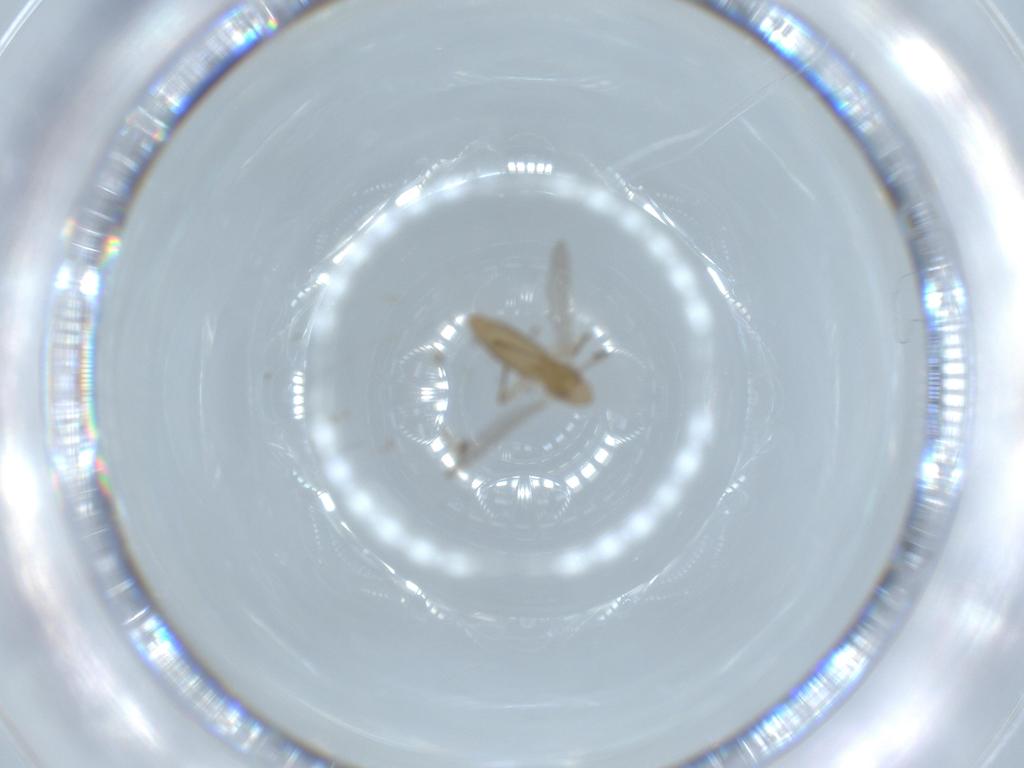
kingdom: Animalia
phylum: Arthropoda
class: Insecta
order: Diptera
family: Chironomidae
